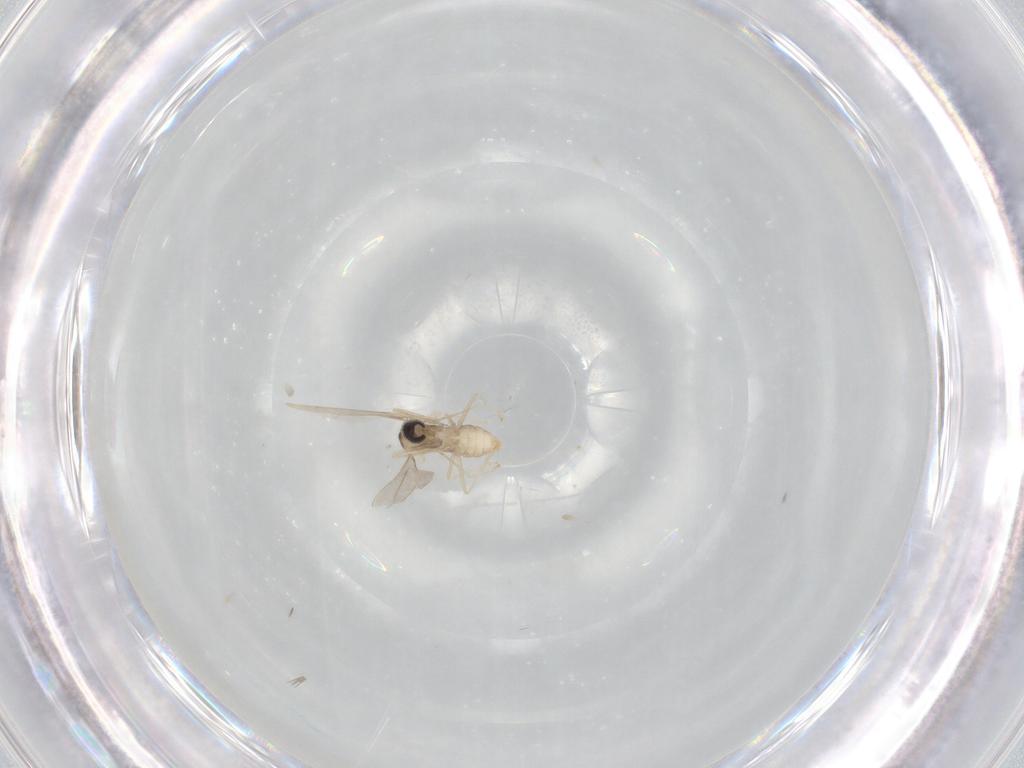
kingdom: Animalia
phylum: Arthropoda
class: Insecta
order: Diptera
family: Cecidomyiidae
